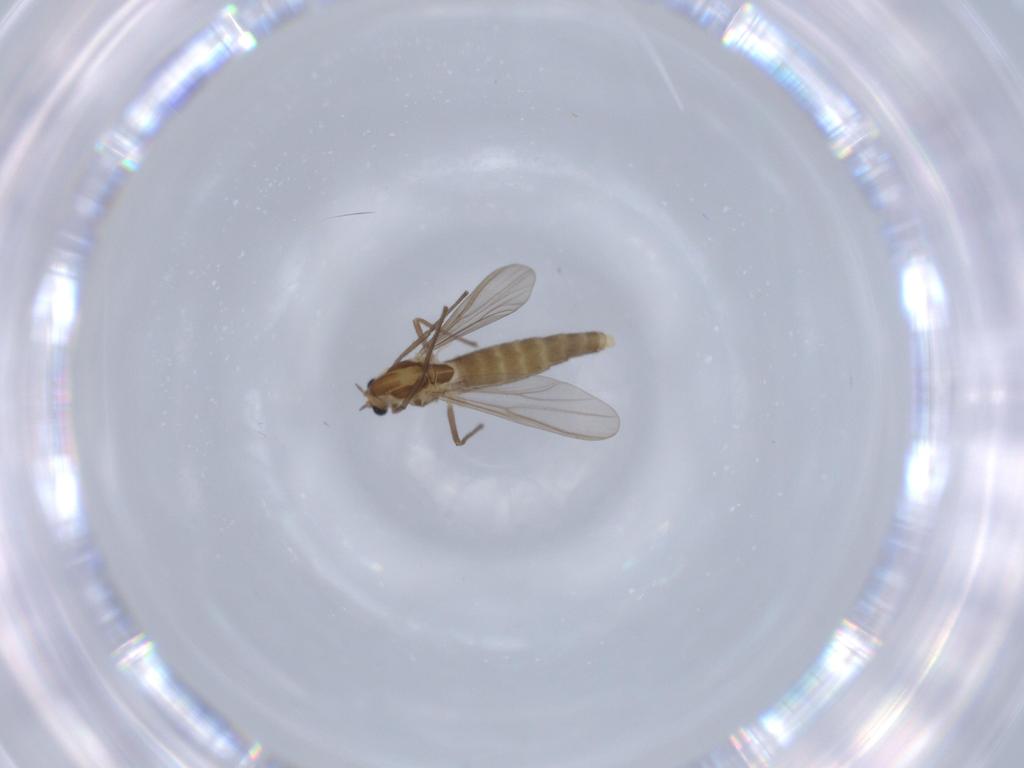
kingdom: Animalia
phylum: Arthropoda
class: Insecta
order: Diptera
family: Chironomidae
